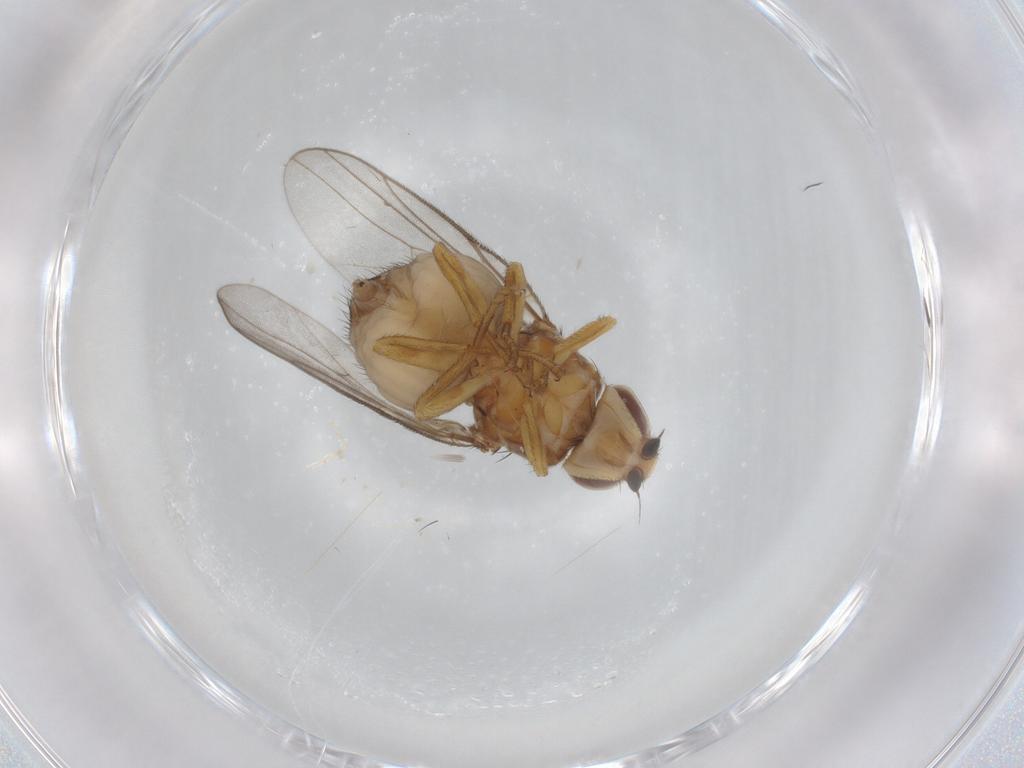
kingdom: Animalia
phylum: Arthropoda
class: Insecta
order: Diptera
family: Chloropidae
